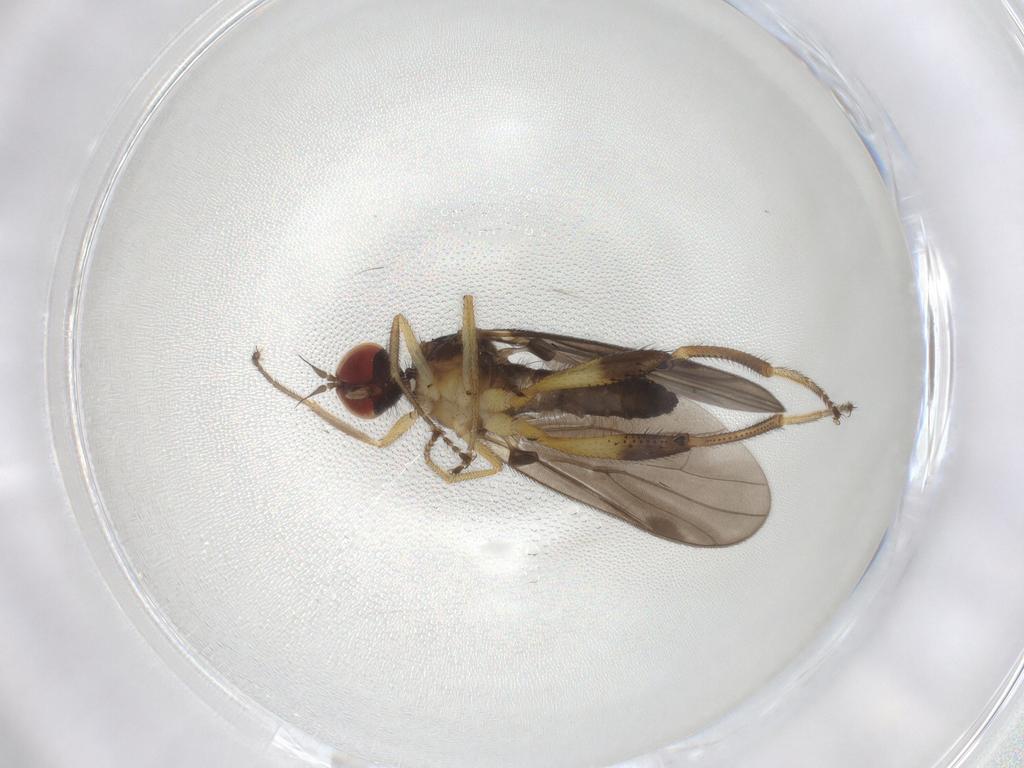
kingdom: Animalia
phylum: Arthropoda
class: Insecta
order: Diptera
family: Hybotidae
